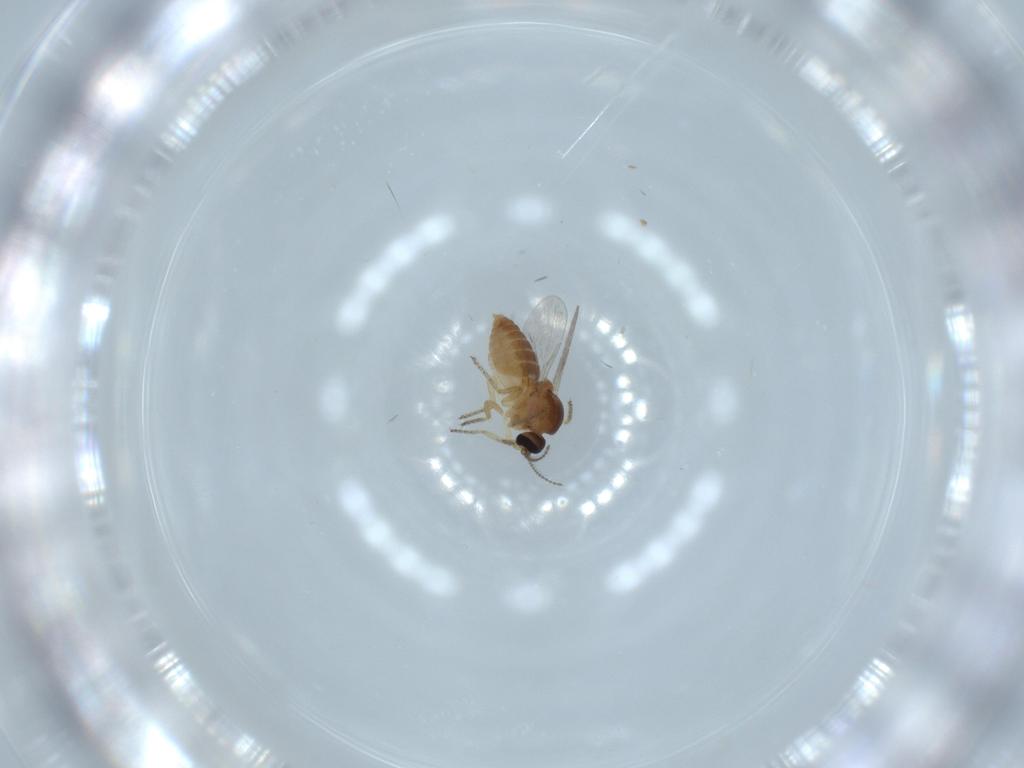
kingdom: Animalia
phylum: Arthropoda
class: Insecta
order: Diptera
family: Ceratopogonidae
